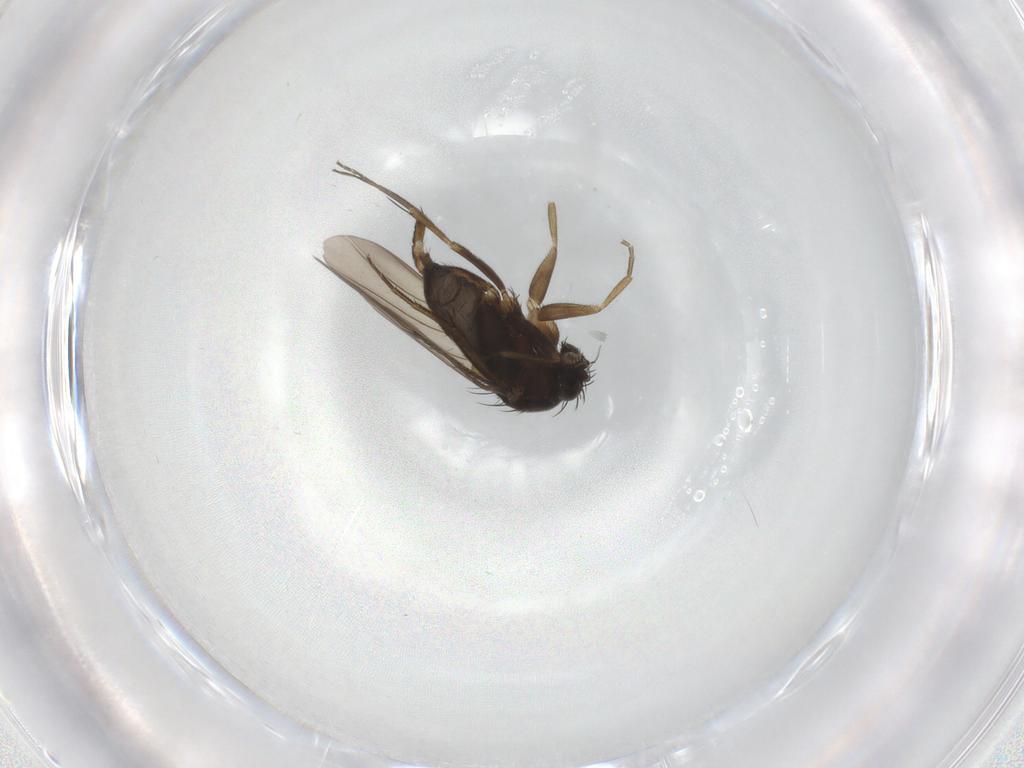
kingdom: Animalia
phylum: Arthropoda
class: Insecta
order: Diptera
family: Phoridae
